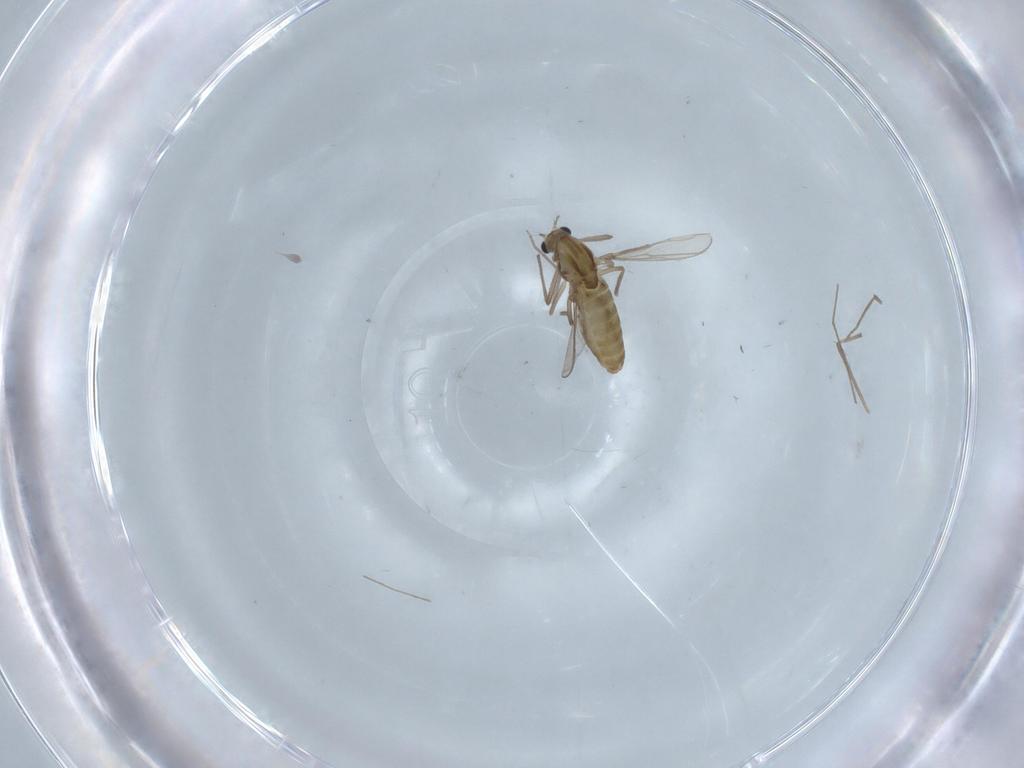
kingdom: Animalia
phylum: Arthropoda
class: Insecta
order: Diptera
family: Chironomidae
